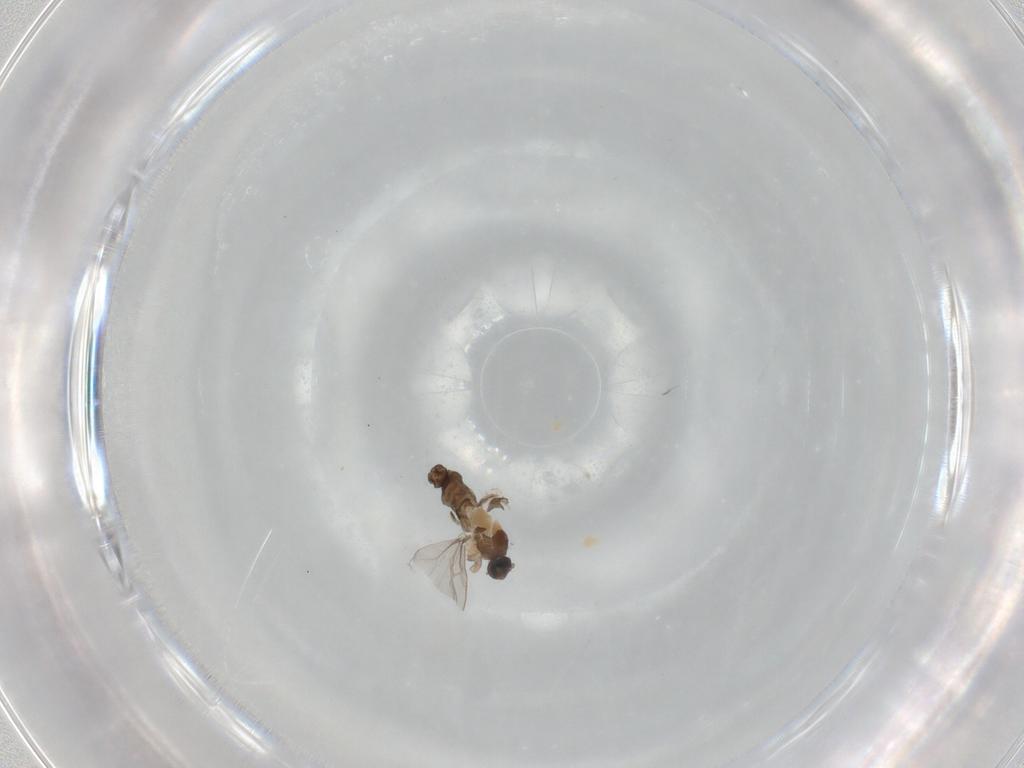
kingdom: Animalia
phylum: Arthropoda
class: Insecta
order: Diptera
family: Cecidomyiidae
